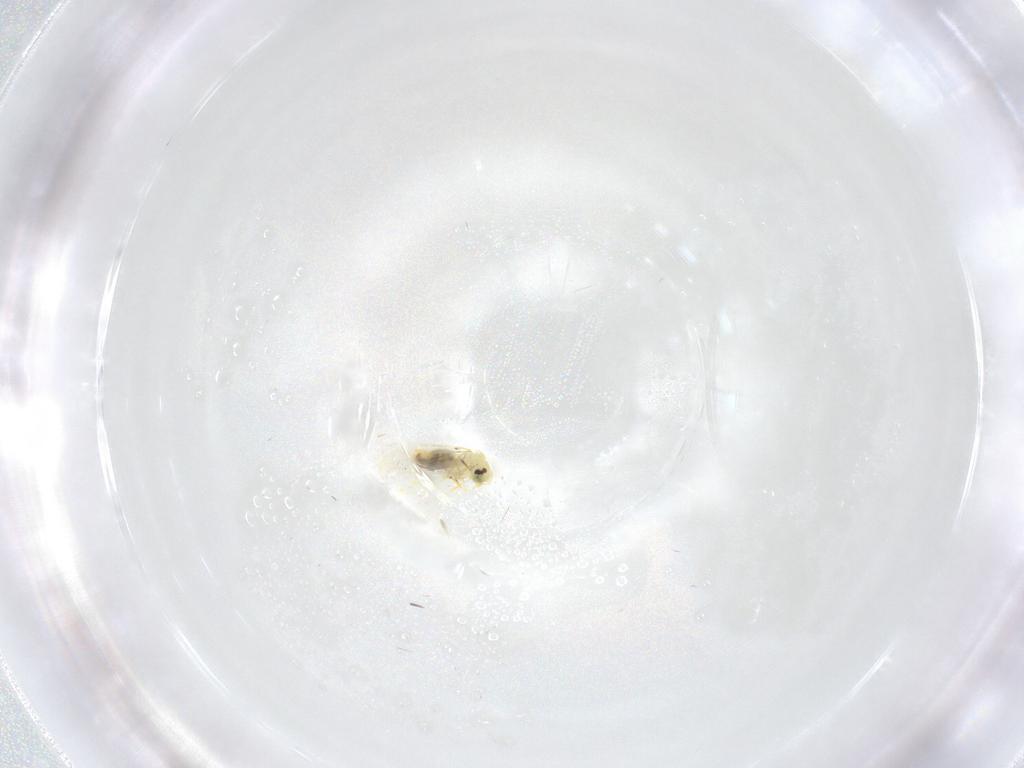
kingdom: Animalia
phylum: Arthropoda
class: Insecta
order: Hemiptera
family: Aleyrodidae
